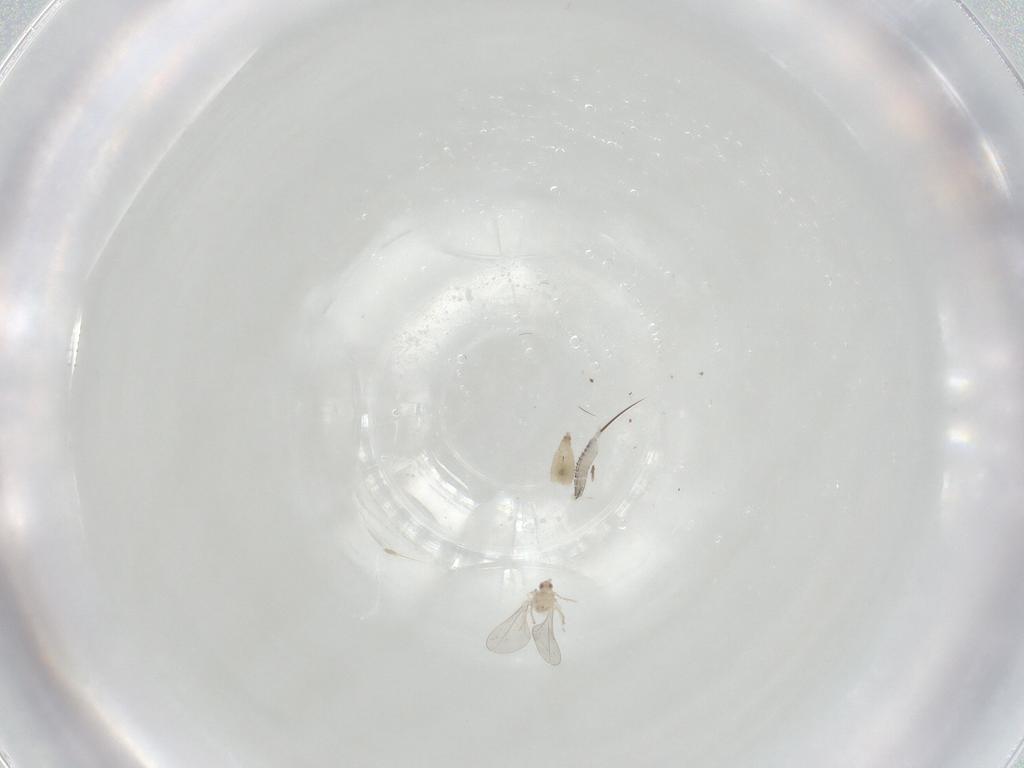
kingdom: Animalia
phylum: Arthropoda
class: Insecta
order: Diptera
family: Cecidomyiidae
